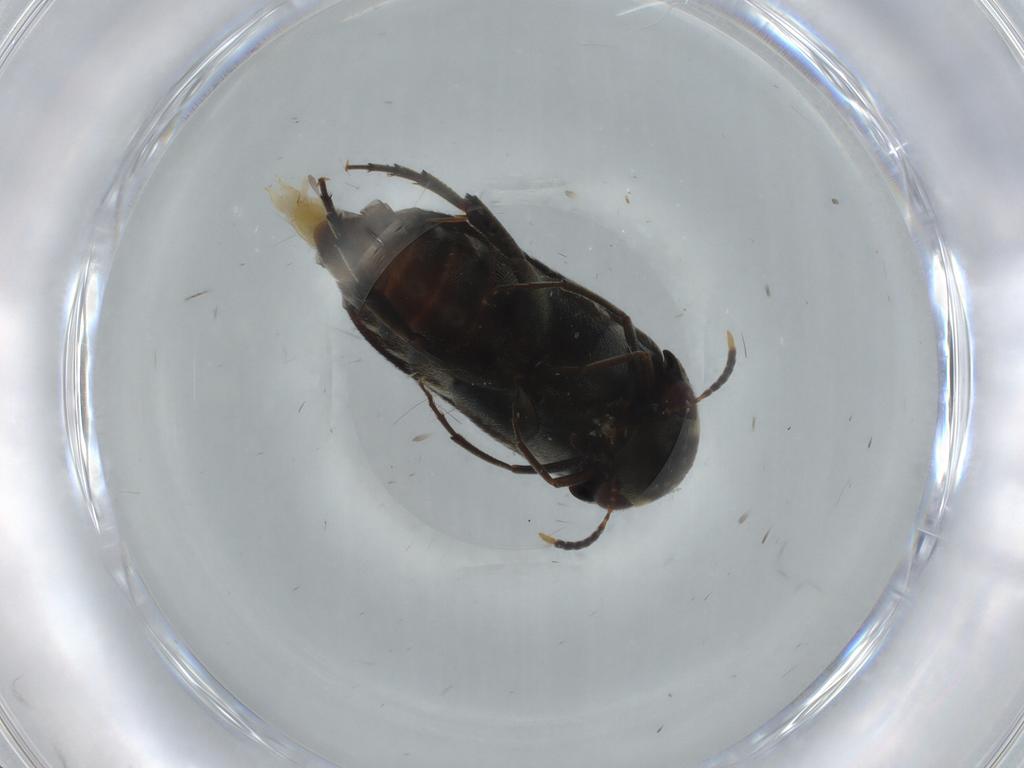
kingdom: Animalia
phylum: Arthropoda
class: Insecta
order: Coleoptera
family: Mordellidae
